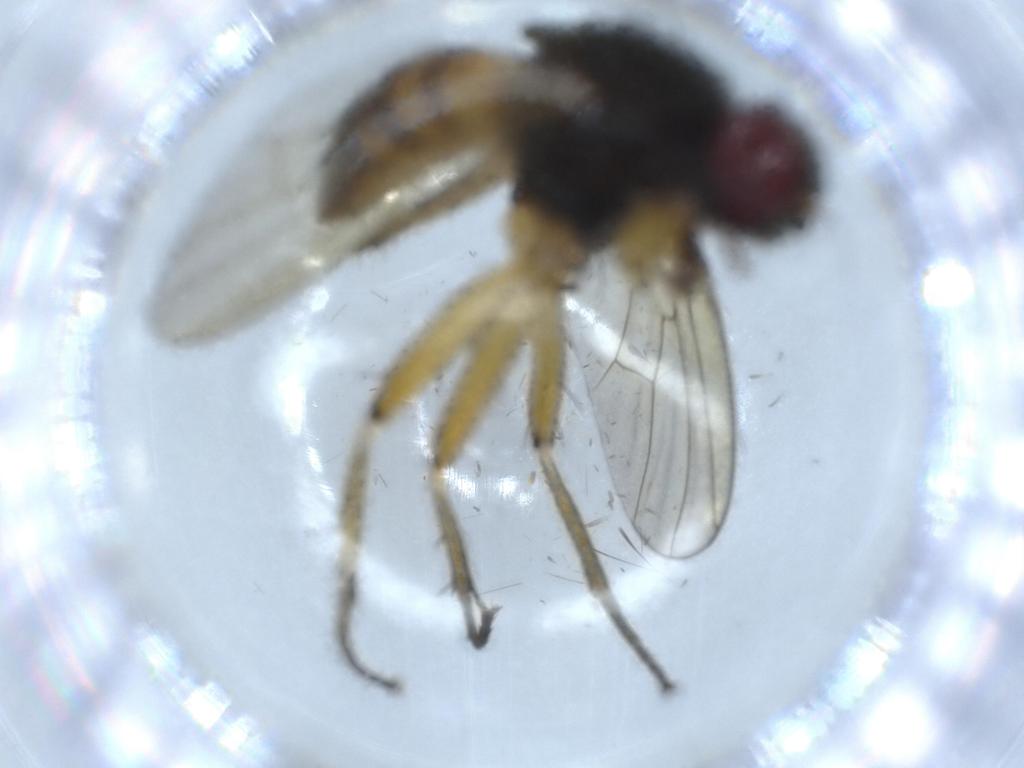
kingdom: Animalia
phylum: Arthropoda
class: Insecta
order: Diptera
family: Muscidae
